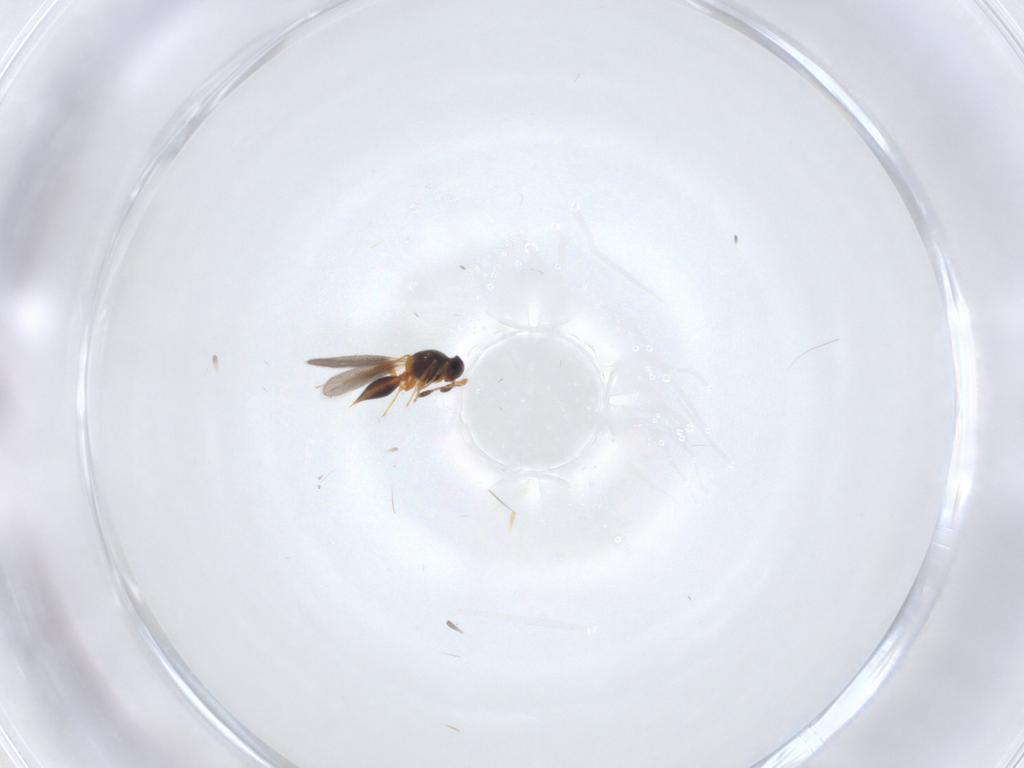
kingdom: Animalia
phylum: Arthropoda
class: Insecta
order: Hymenoptera
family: Platygastridae
